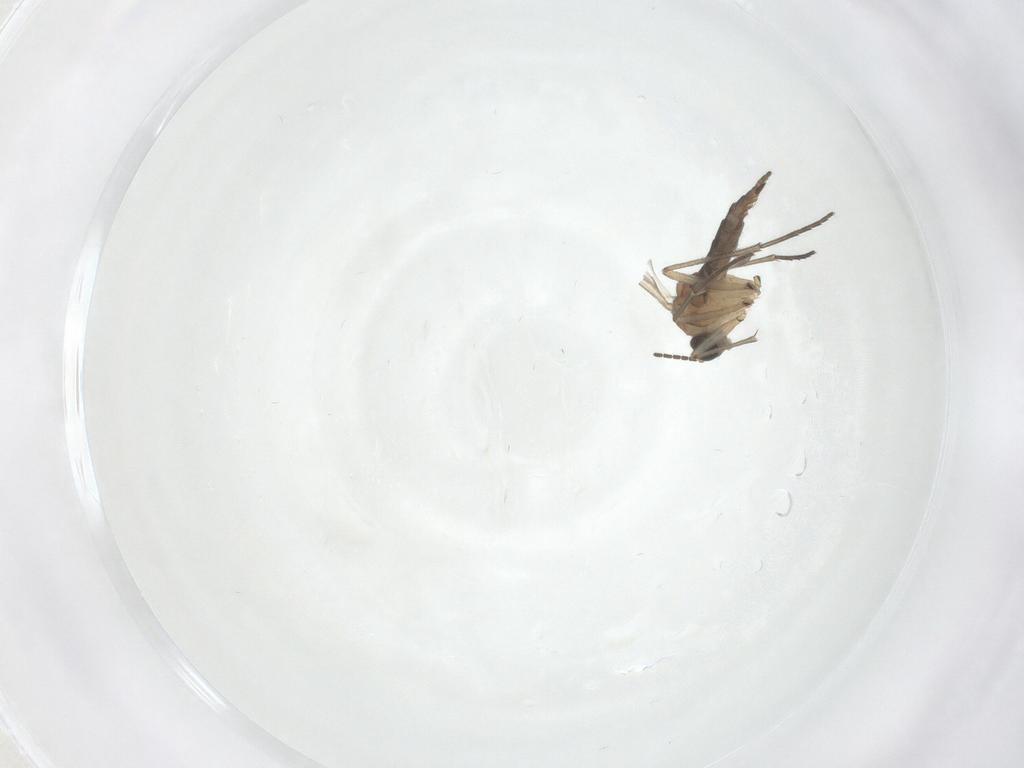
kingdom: Animalia
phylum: Arthropoda
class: Insecta
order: Diptera
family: Sciaridae
